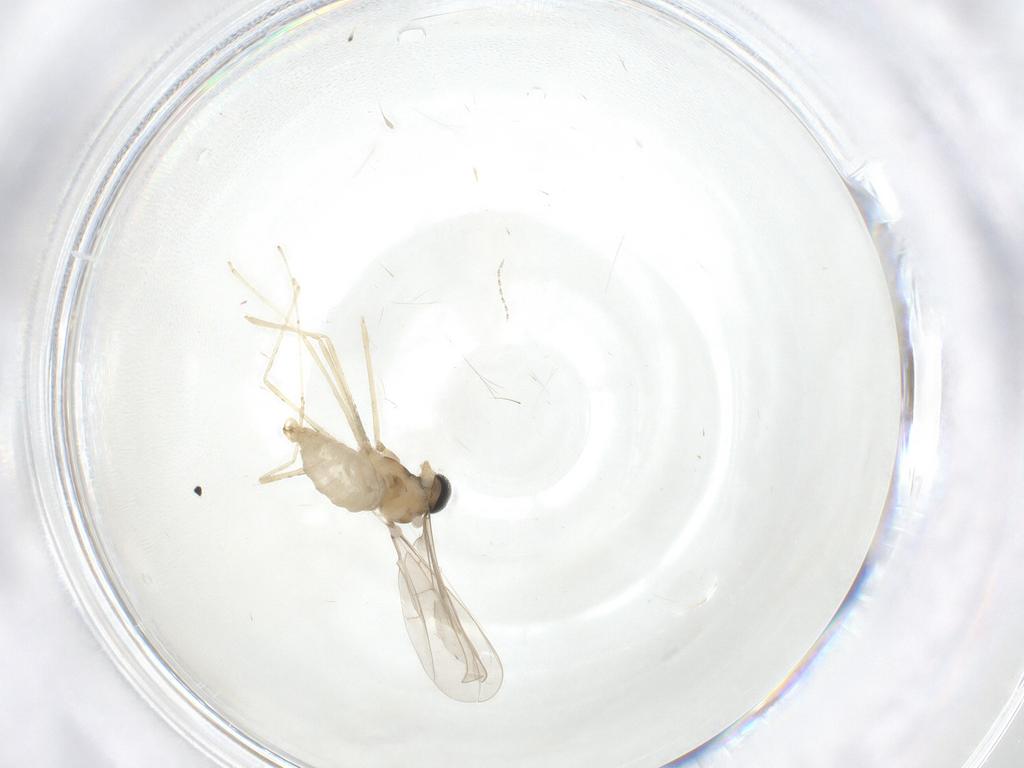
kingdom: Animalia
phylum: Arthropoda
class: Insecta
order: Diptera
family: Cecidomyiidae
